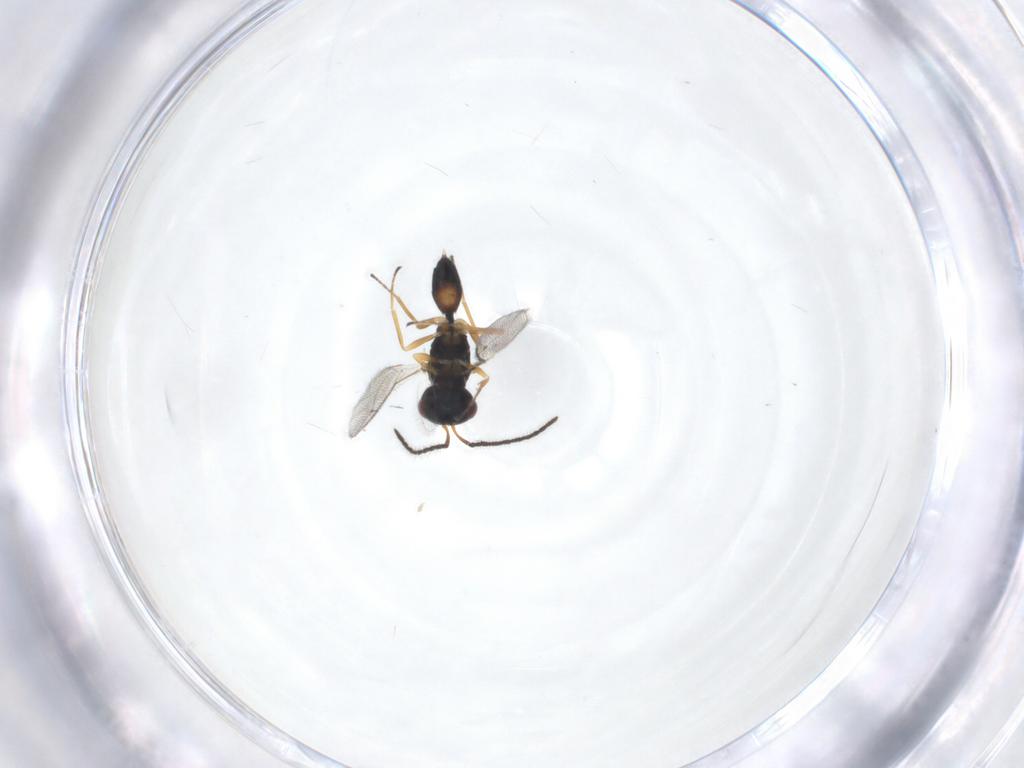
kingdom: Animalia
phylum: Arthropoda
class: Insecta
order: Hymenoptera
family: Pteromalidae
